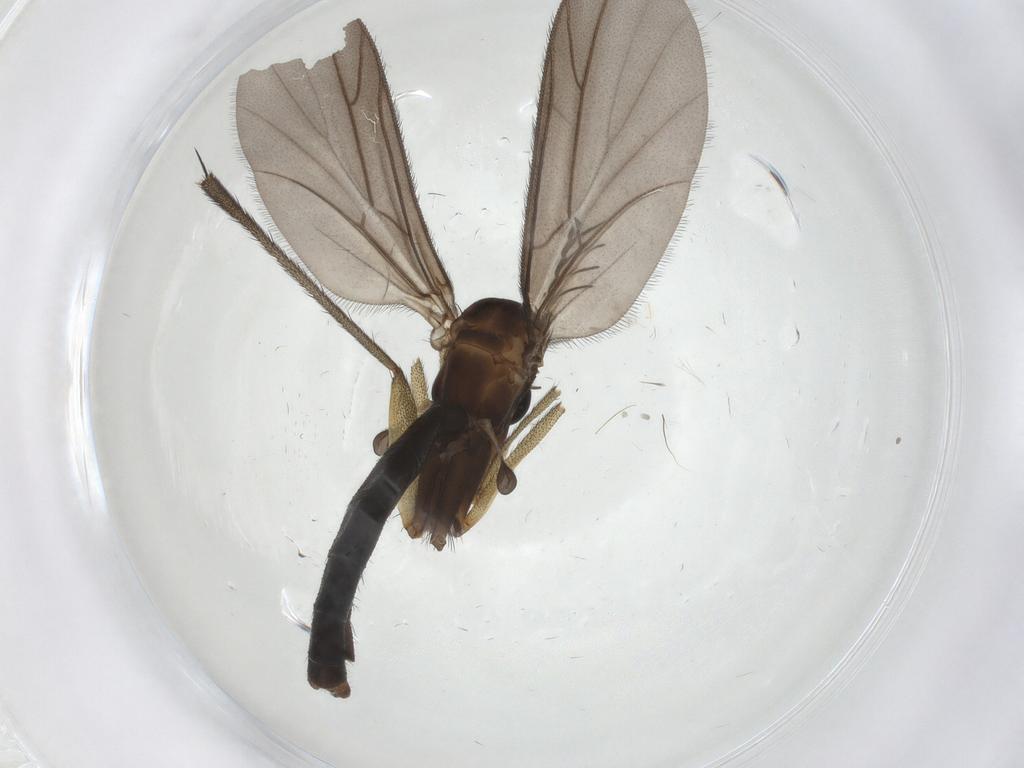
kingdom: Animalia
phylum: Arthropoda
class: Insecta
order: Diptera
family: Ditomyiidae
